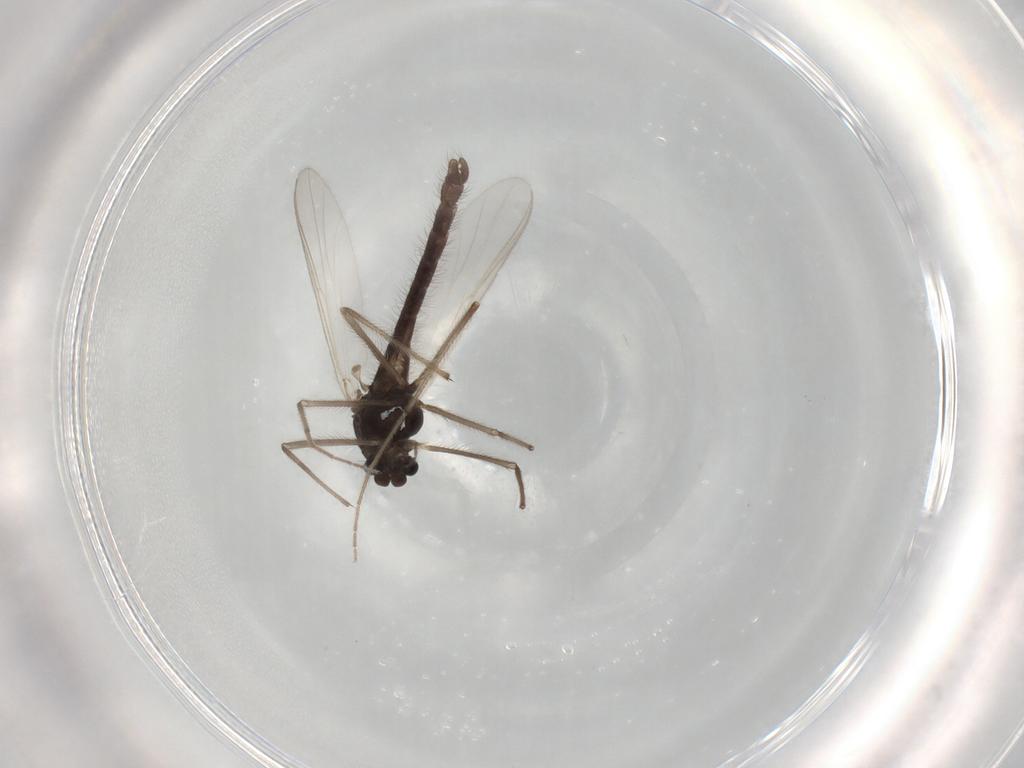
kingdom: Animalia
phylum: Arthropoda
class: Insecta
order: Diptera
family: Chironomidae
